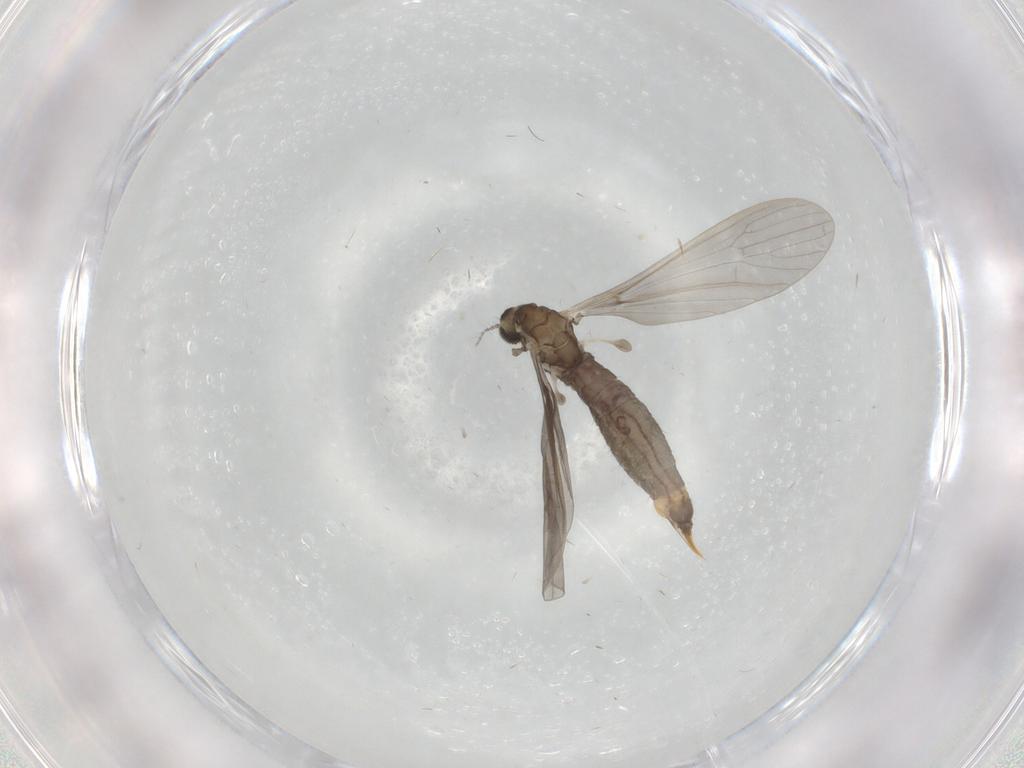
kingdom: Animalia
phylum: Arthropoda
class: Insecta
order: Diptera
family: Limoniidae
